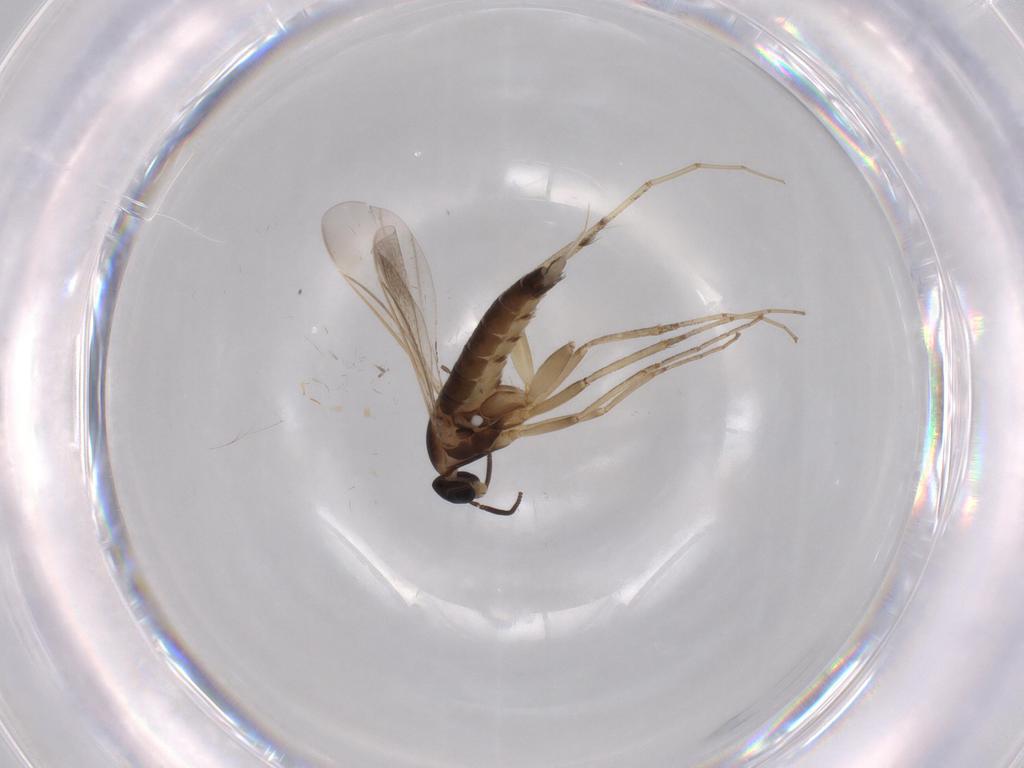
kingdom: Animalia
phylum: Arthropoda
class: Insecta
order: Diptera
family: Cecidomyiidae
